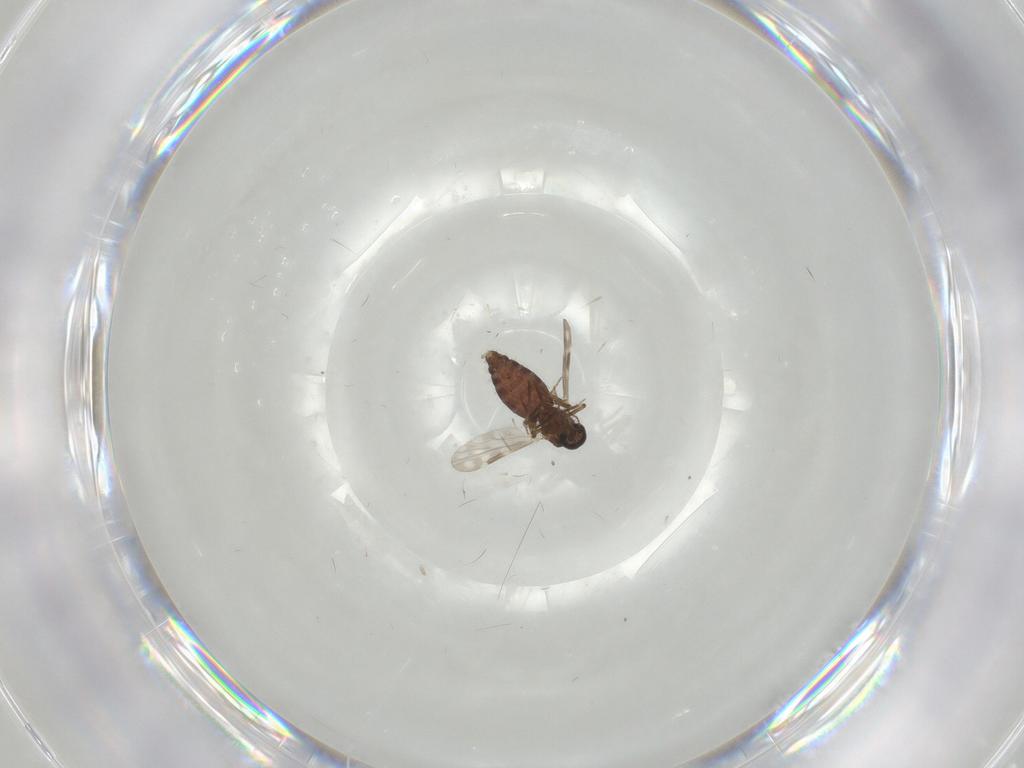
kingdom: Animalia
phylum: Arthropoda
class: Insecta
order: Diptera
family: Ceratopogonidae
